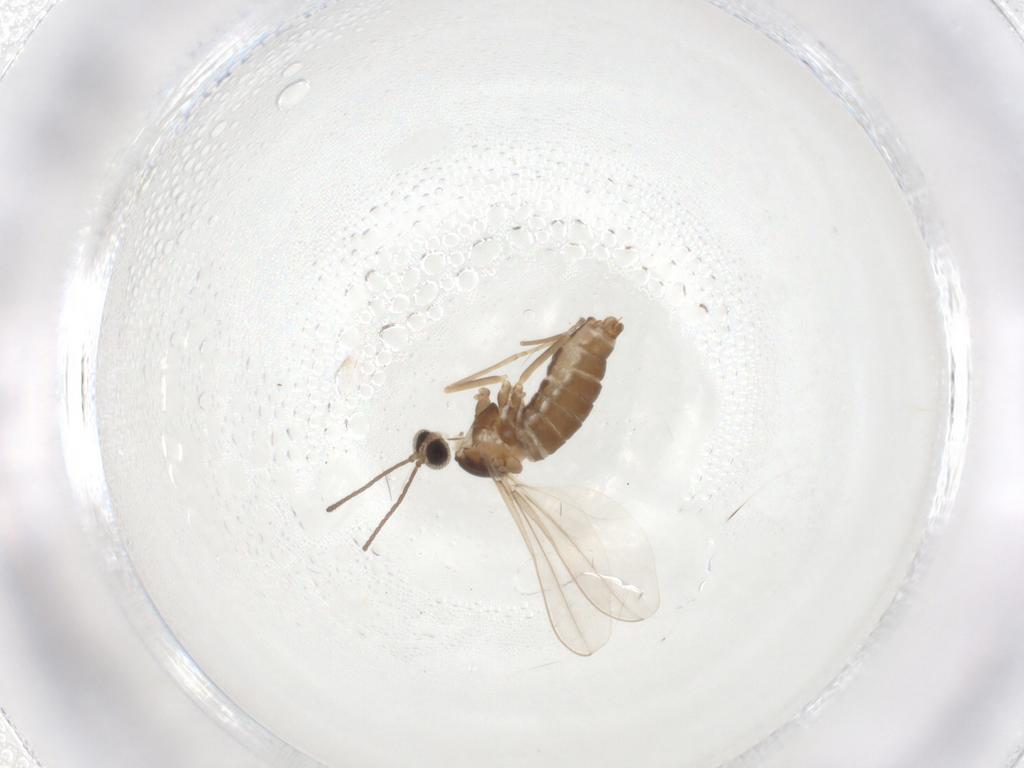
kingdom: Animalia
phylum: Arthropoda
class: Insecta
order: Diptera
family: Cecidomyiidae
